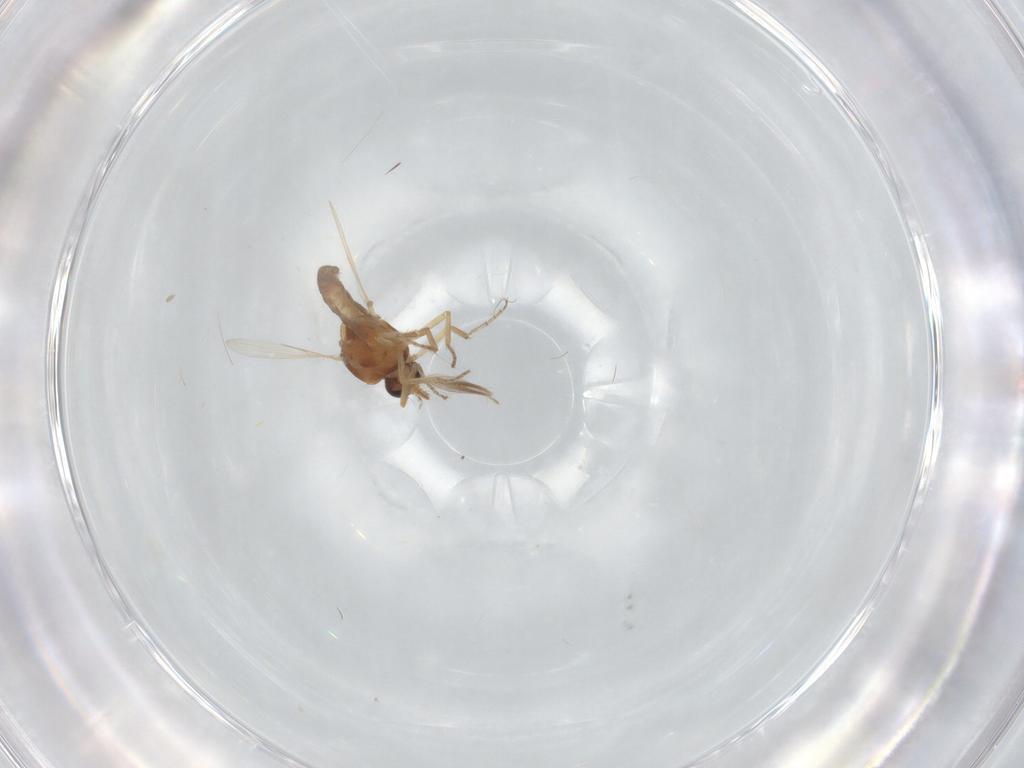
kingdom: Animalia
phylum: Arthropoda
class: Insecta
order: Diptera
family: Ceratopogonidae
